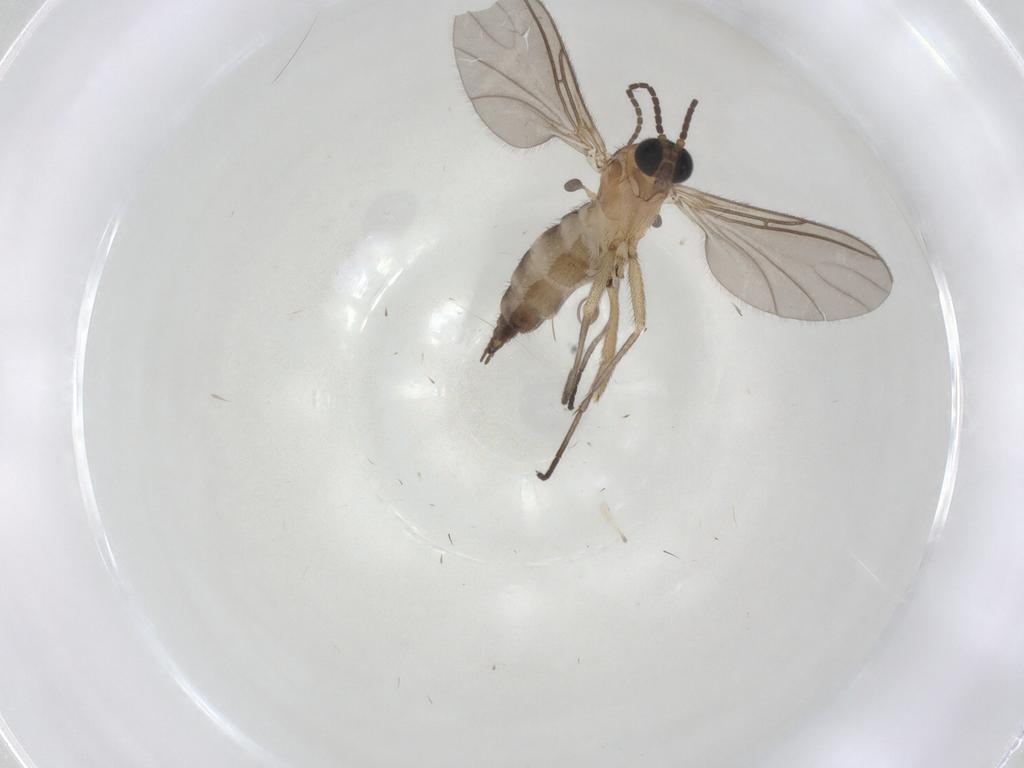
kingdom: Animalia
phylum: Arthropoda
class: Insecta
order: Diptera
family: Sciaridae
